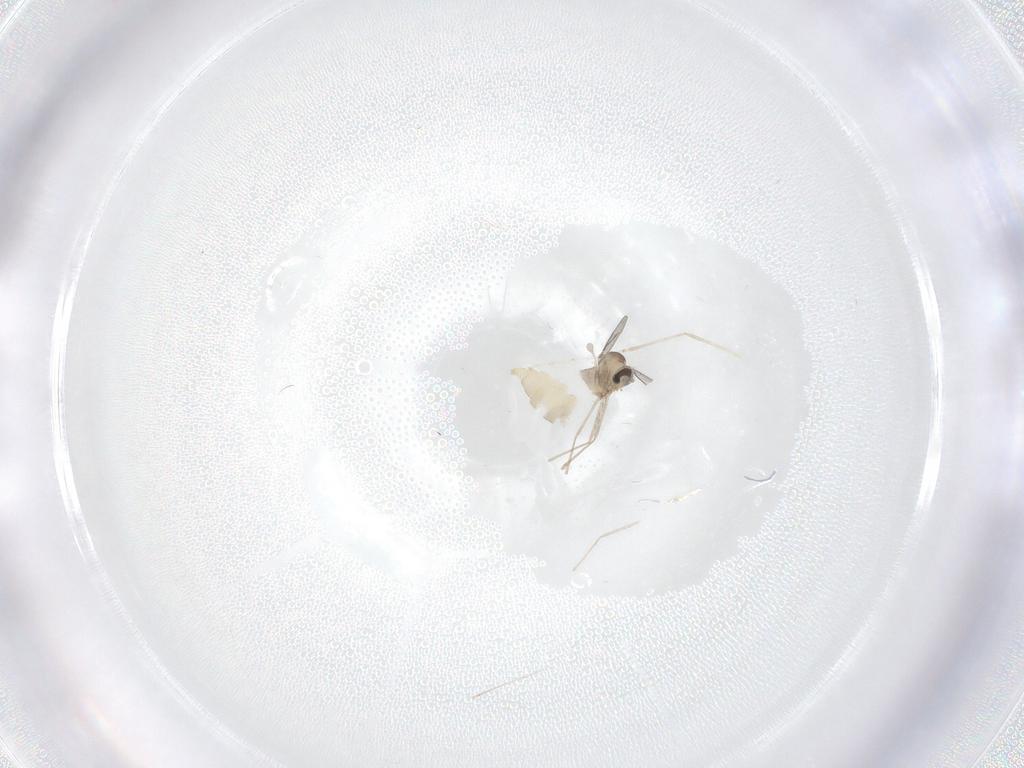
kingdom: Animalia
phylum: Arthropoda
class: Insecta
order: Diptera
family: Cecidomyiidae
